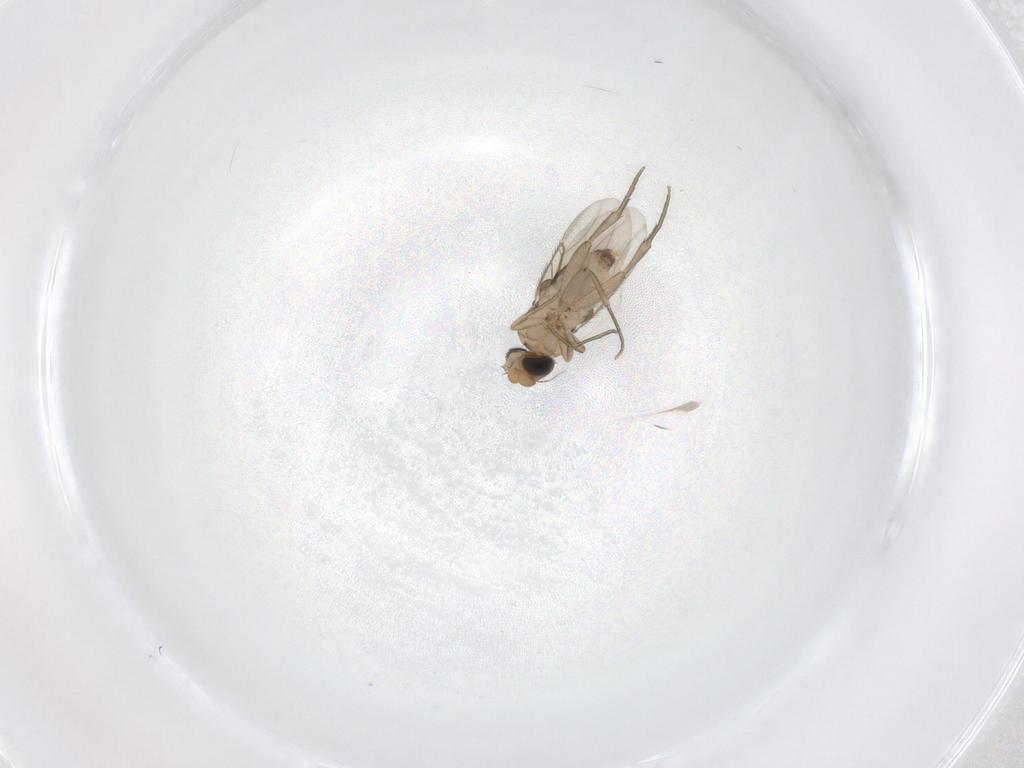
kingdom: Animalia
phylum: Arthropoda
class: Insecta
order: Diptera
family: Phoridae
